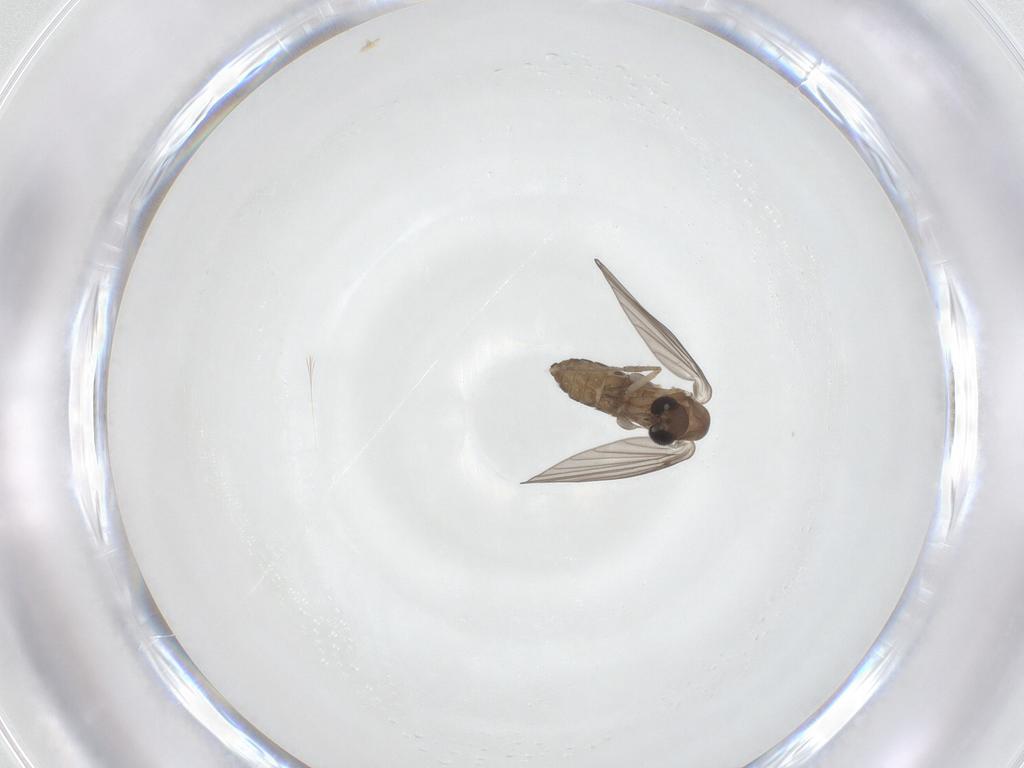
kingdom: Animalia
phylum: Arthropoda
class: Insecta
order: Diptera
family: Psychodidae
